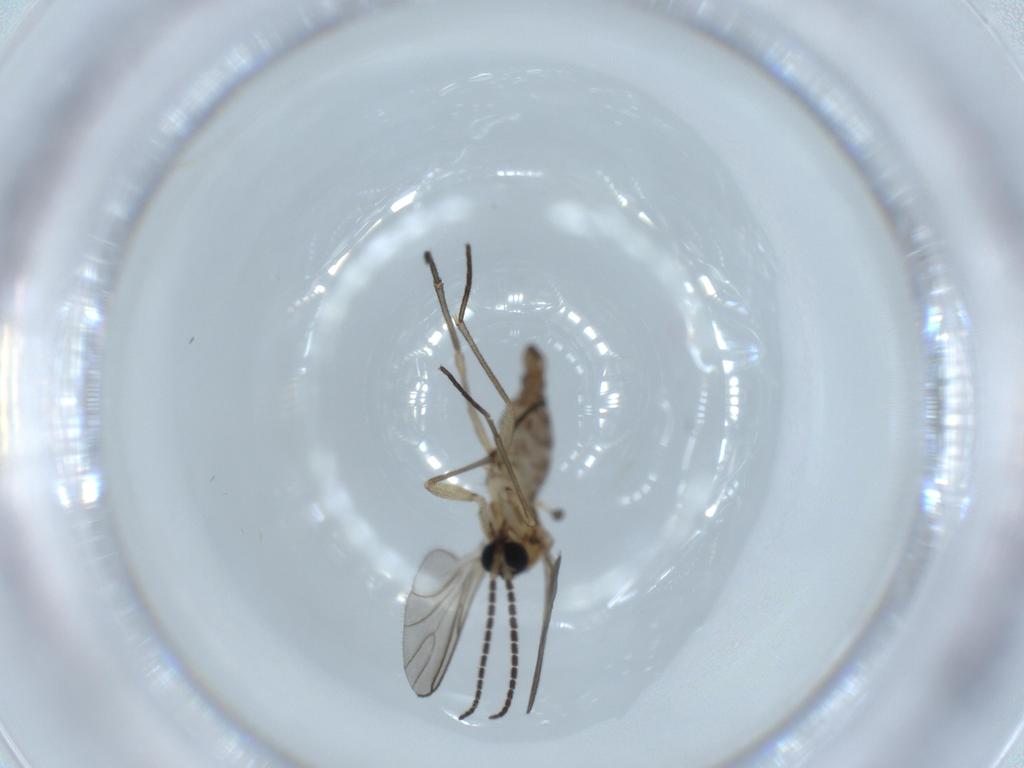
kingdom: Animalia
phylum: Arthropoda
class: Insecta
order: Diptera
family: Sciaridae
